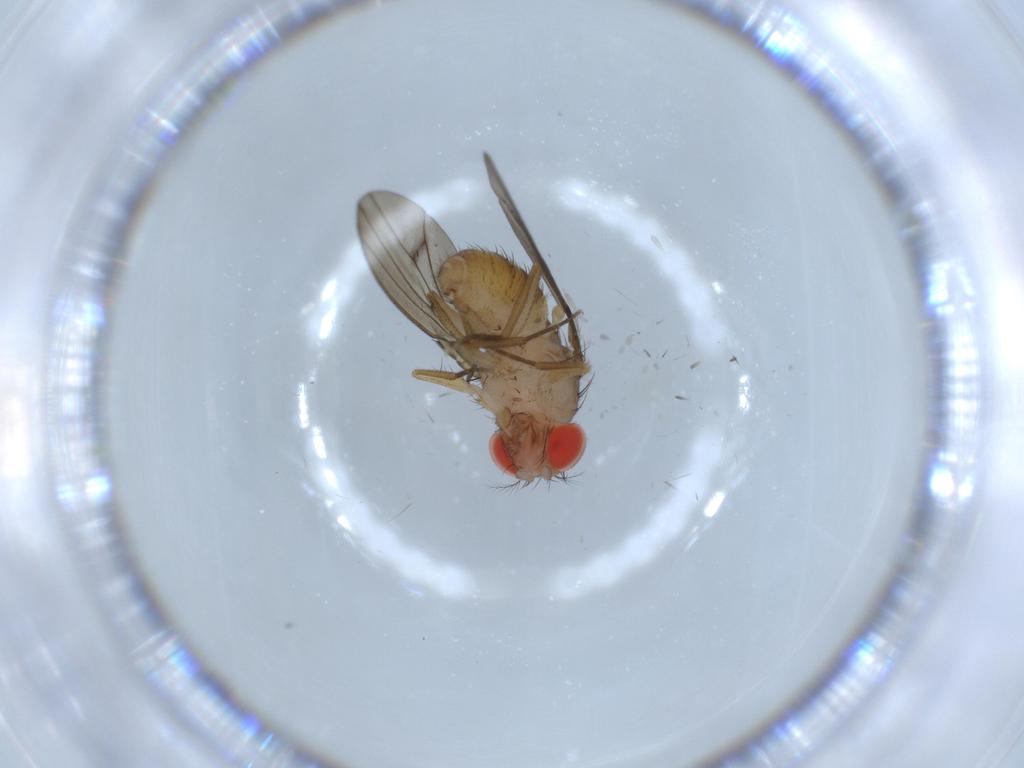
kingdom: Animalia
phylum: Arthropoda
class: Insecta
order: Diptera
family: Drosophilidae
